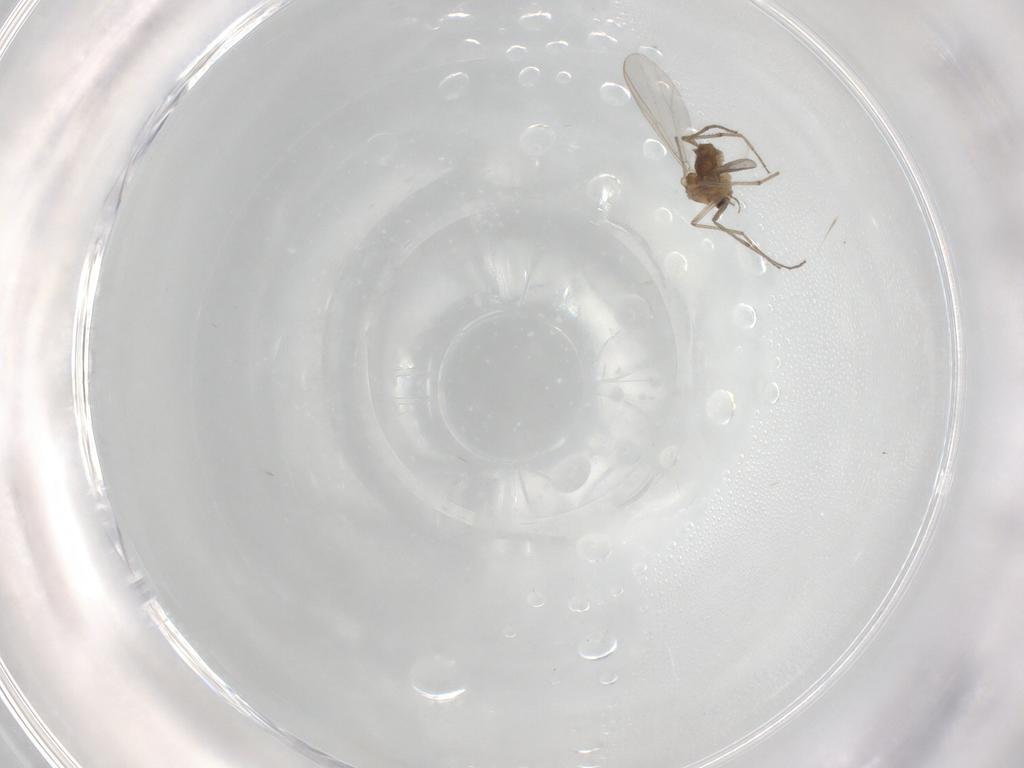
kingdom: Animalia
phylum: Arthropoda
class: Insecta
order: Diptera
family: Chironomidae
